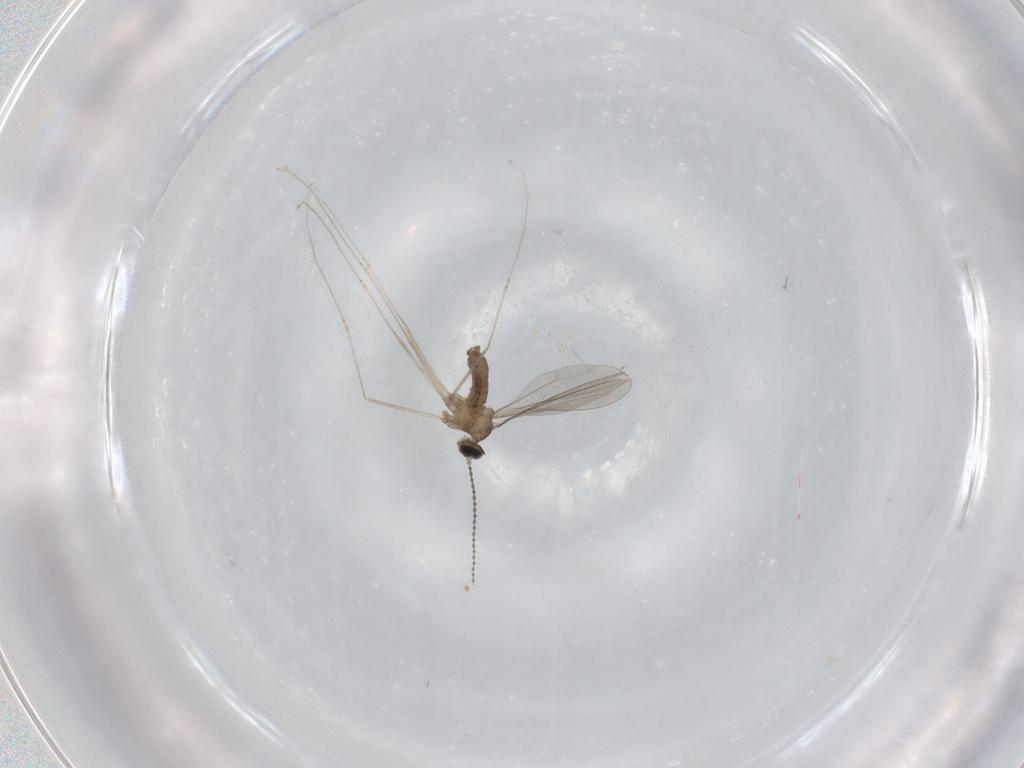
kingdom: Animalia
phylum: Arthropoda
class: Insecta
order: Diptera
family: Cecidomyiidae
